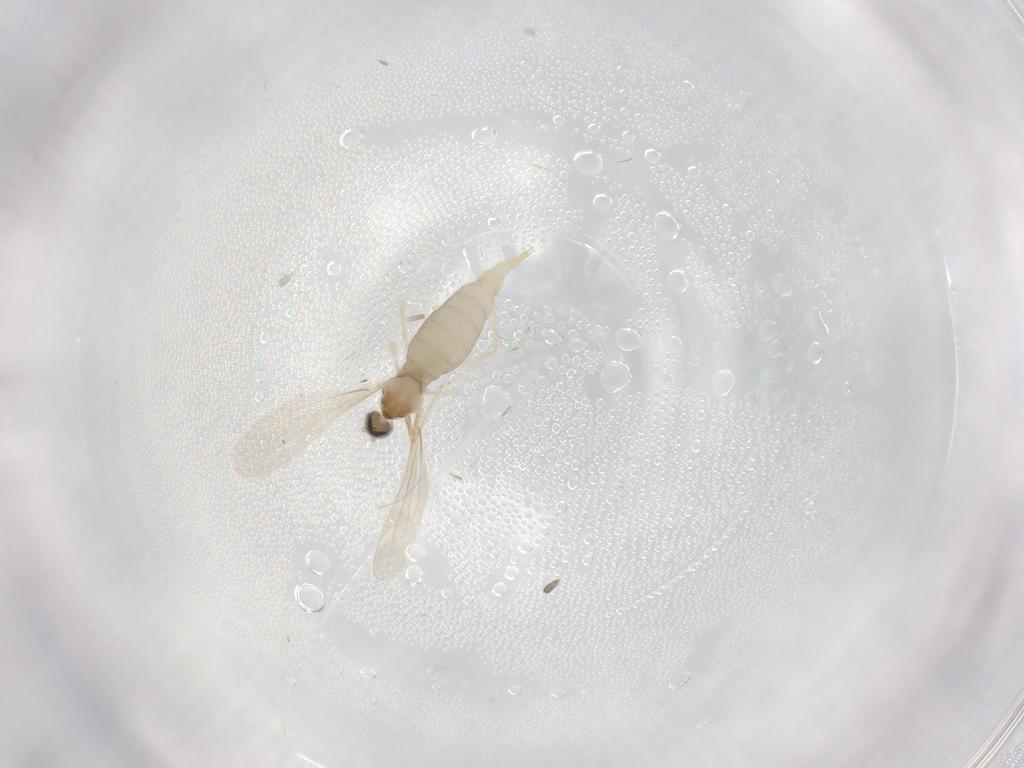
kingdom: Animalia
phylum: Arthropoda
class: Insecta
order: Diptera
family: Cecidomyiidae
